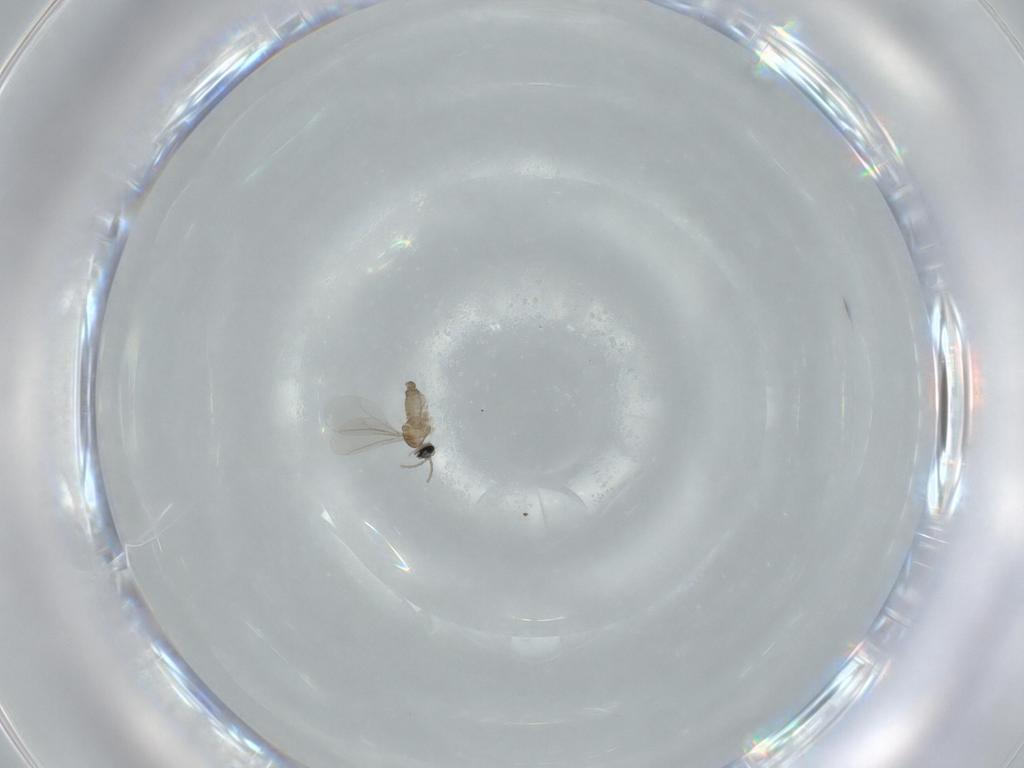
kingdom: Animalia
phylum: Arthropoda
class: Insecta
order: Diptera
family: Cecidomyiidae
